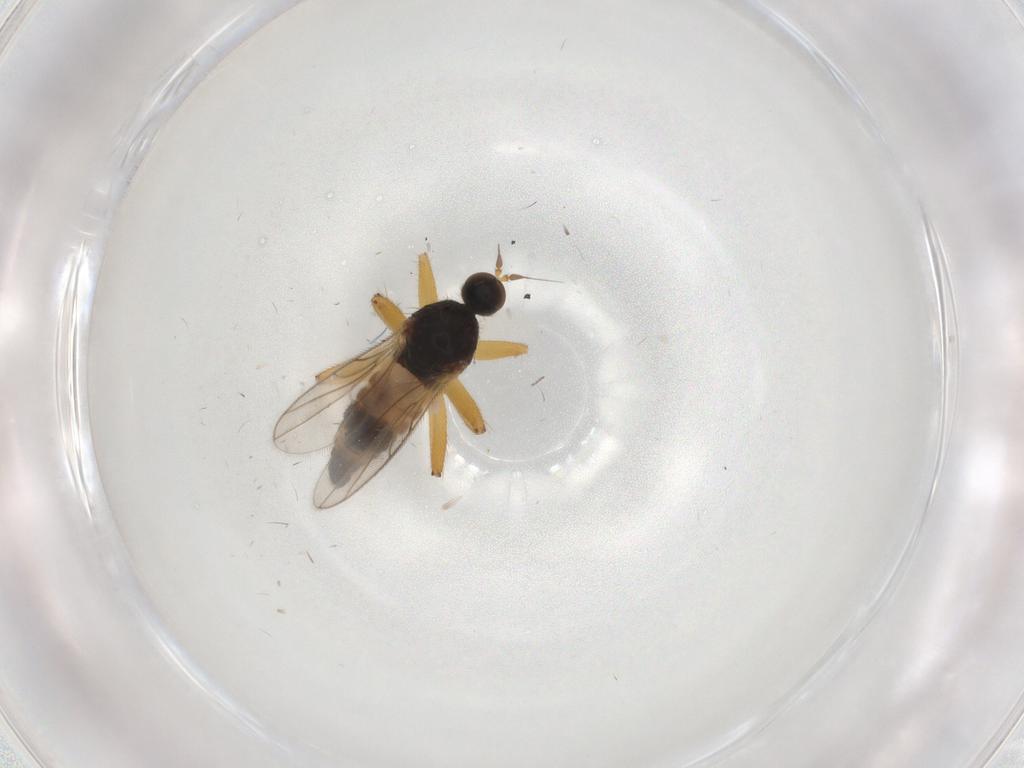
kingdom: Animalia
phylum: Arthropoda
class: Insecta
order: Diptera
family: Hybotidae
